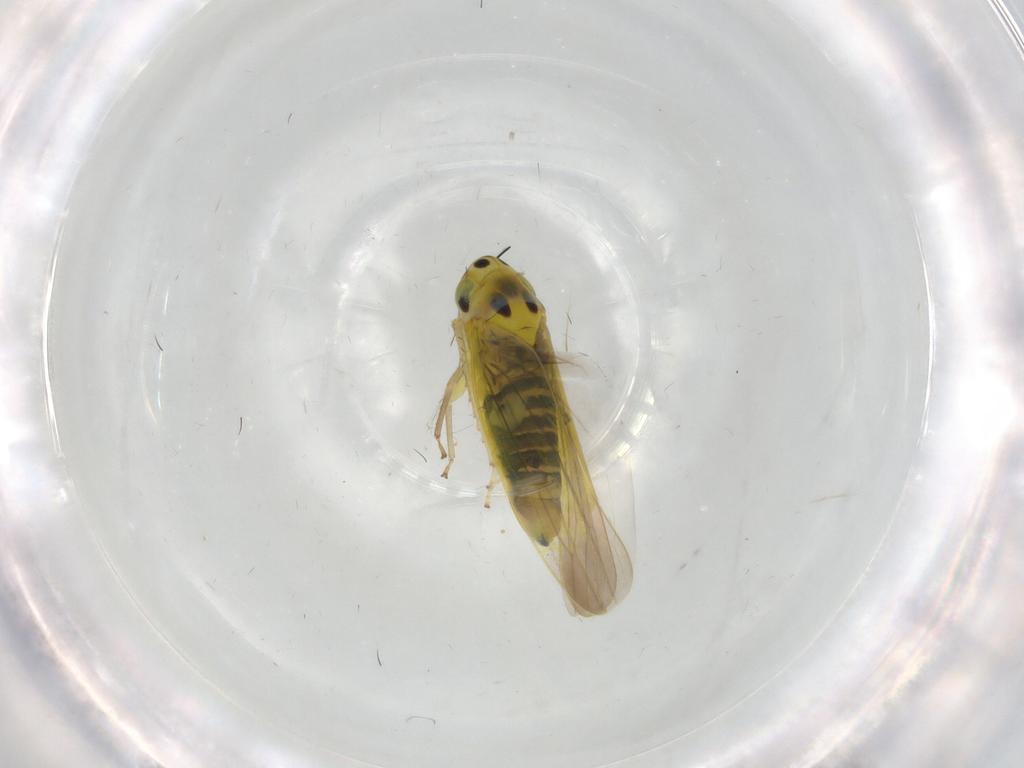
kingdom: Animalia
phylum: Arthropoda
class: Insecta
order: Hemiptera
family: Cicadellidae
